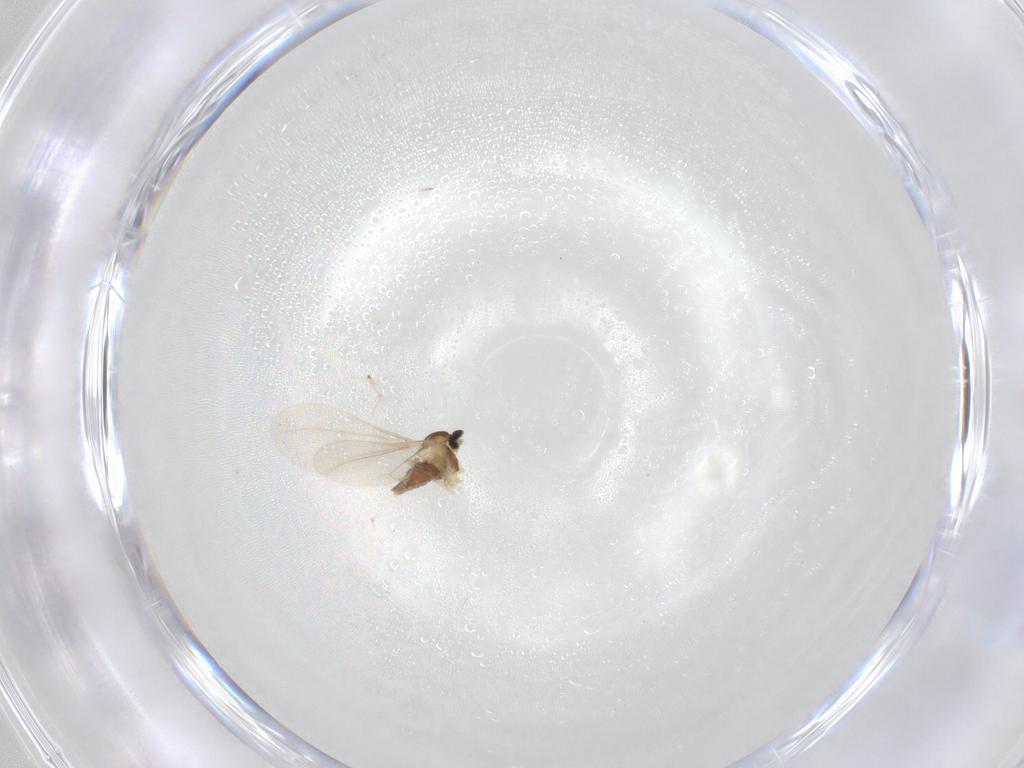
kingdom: Animalia
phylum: Arthropoda
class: Insecta
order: Diptera
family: Cecidomyiidae
